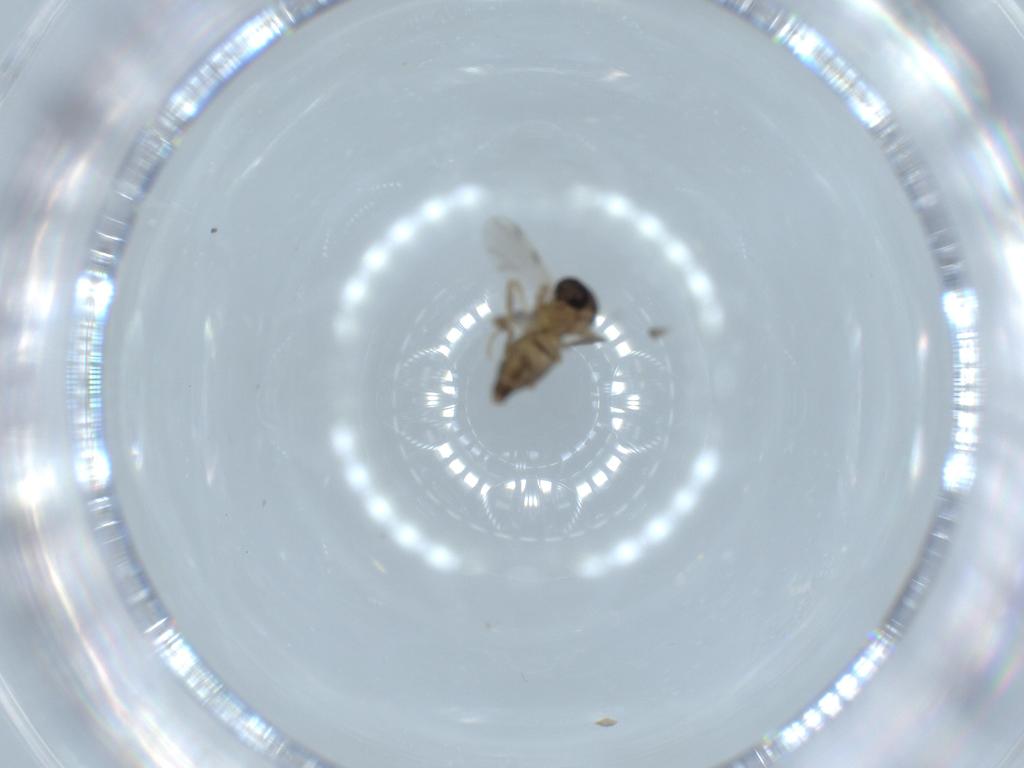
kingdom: Animalia
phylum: Arthropoda
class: Insecta
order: Diptera
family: Ceratopogonidae
